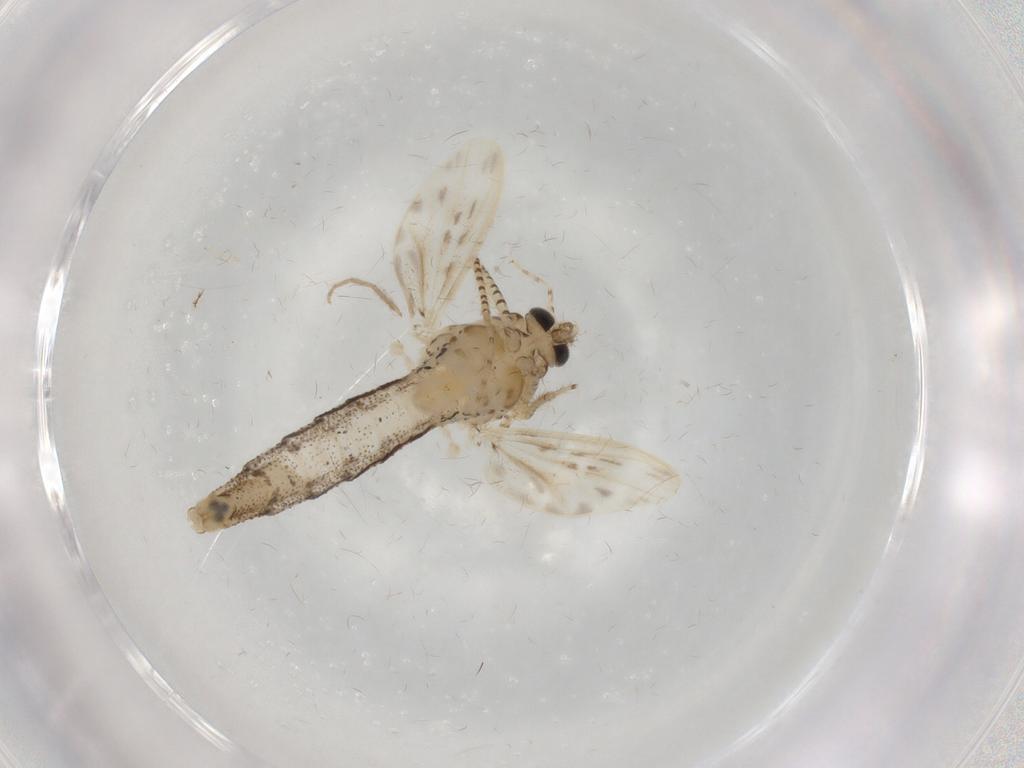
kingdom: Animalia
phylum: Arthropoda
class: Insecta
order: Diptera
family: Chaoboridae
